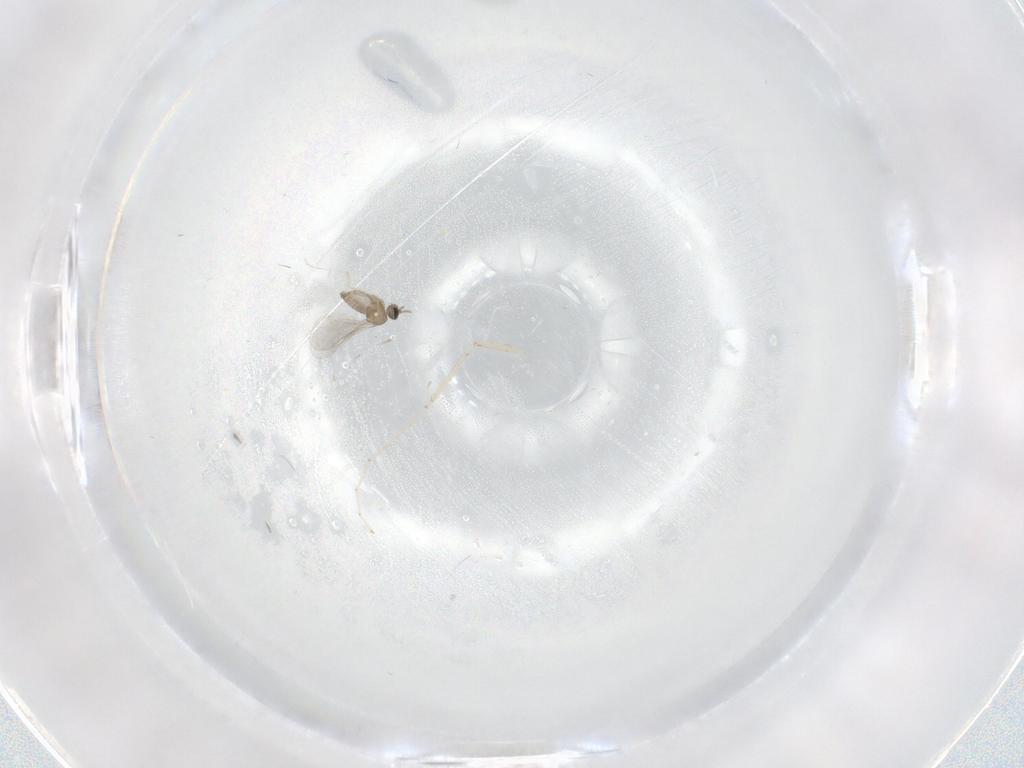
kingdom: Animalia
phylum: Arthropoda
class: Insecta
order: Diptera
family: Cecidomyiidae
